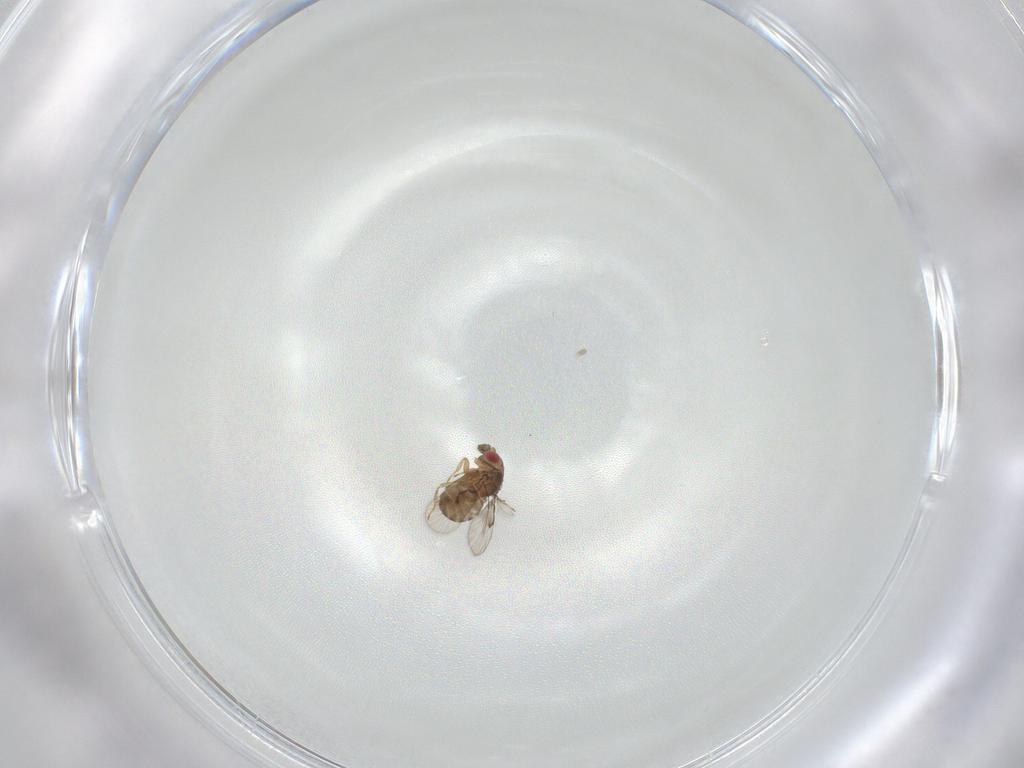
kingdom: Animalia
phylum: Arthropoda
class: Insecta
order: Hymenoptera
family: Trichogrammatidae
